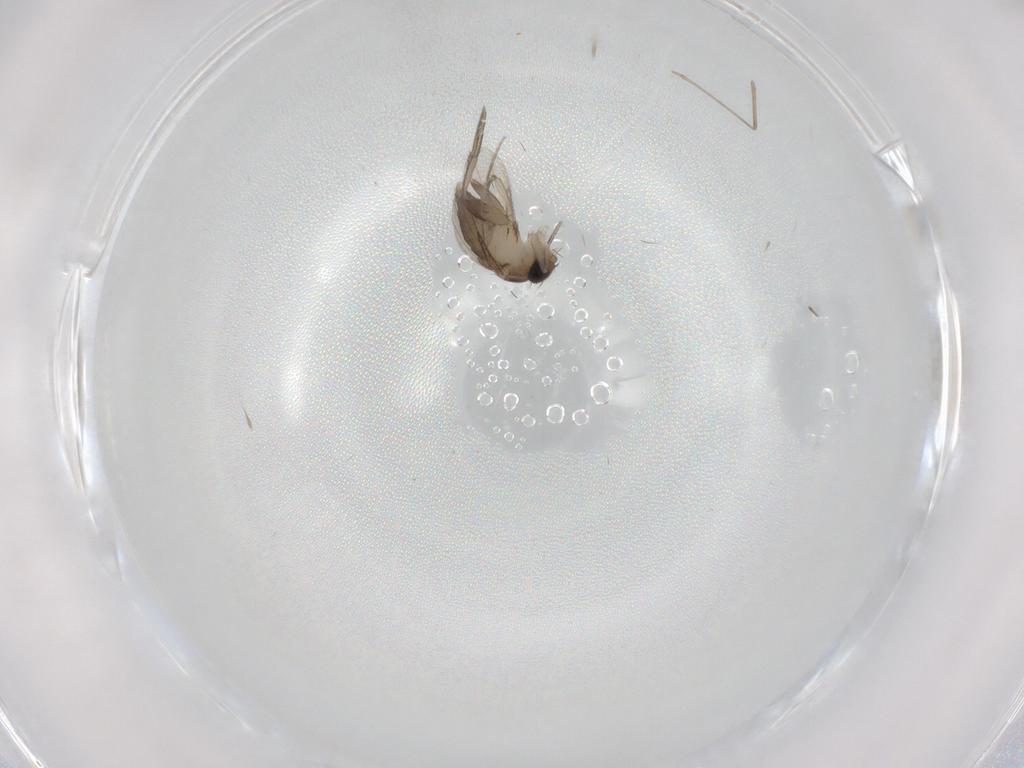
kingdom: Animalia
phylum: Arthropoda
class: Insecta
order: Diptera
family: Phoridae
